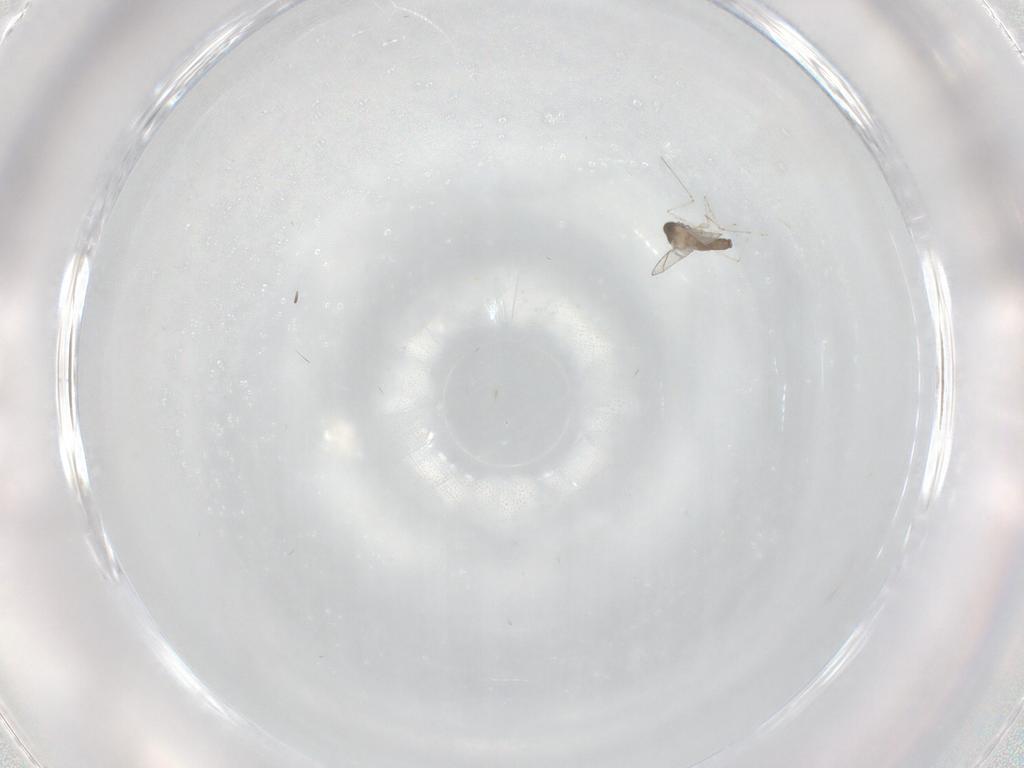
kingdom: Animalia
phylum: Arthropoda
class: Insecta
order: Diptera
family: Cecidomyiidae
